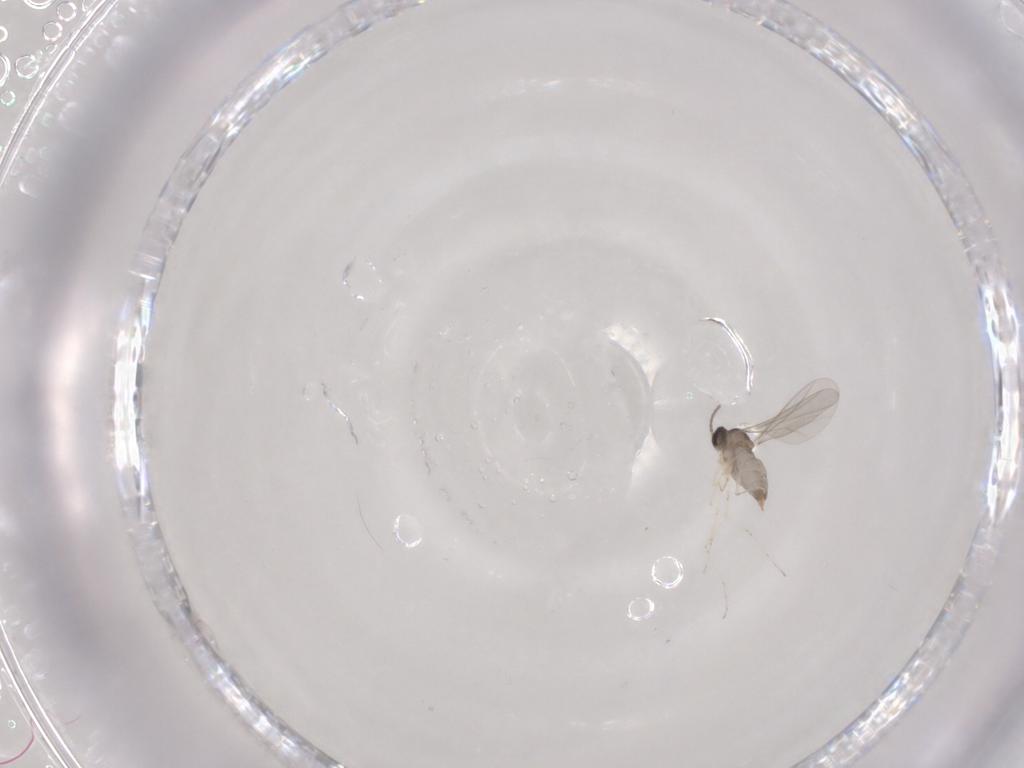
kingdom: Animalia
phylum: Arthropoda
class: Insecta
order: Diptera
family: Cecidomyiidae
